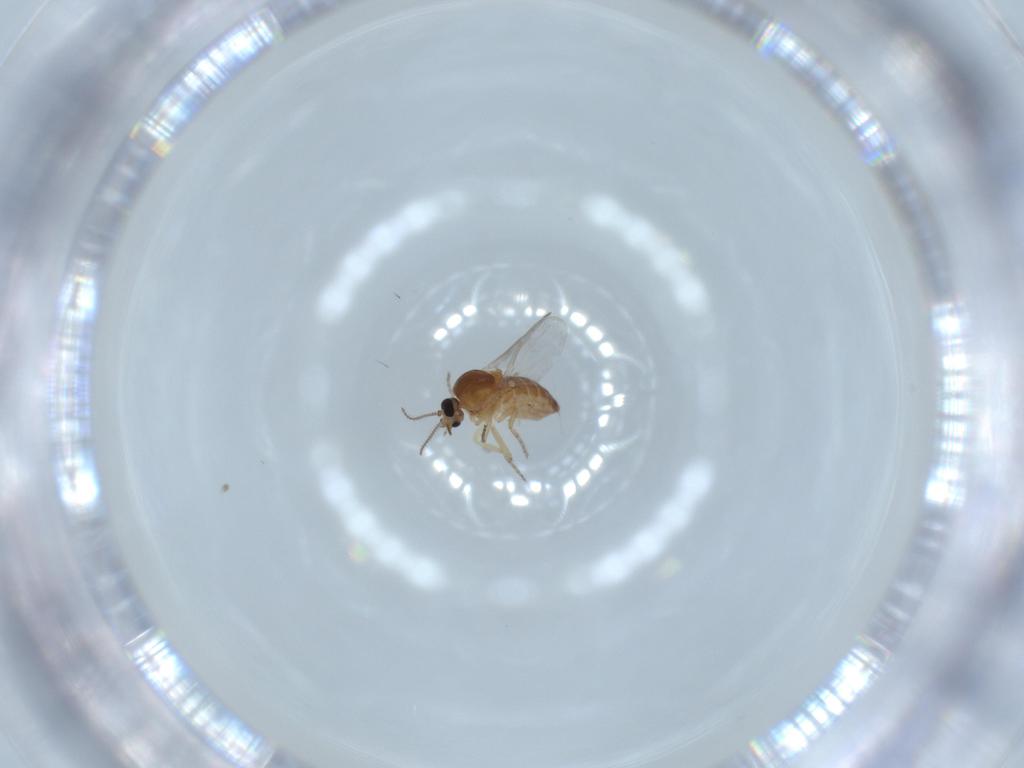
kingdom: Animalia
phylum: Arthropoda
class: Insecta
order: Diptera
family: Ceratopogonidae
